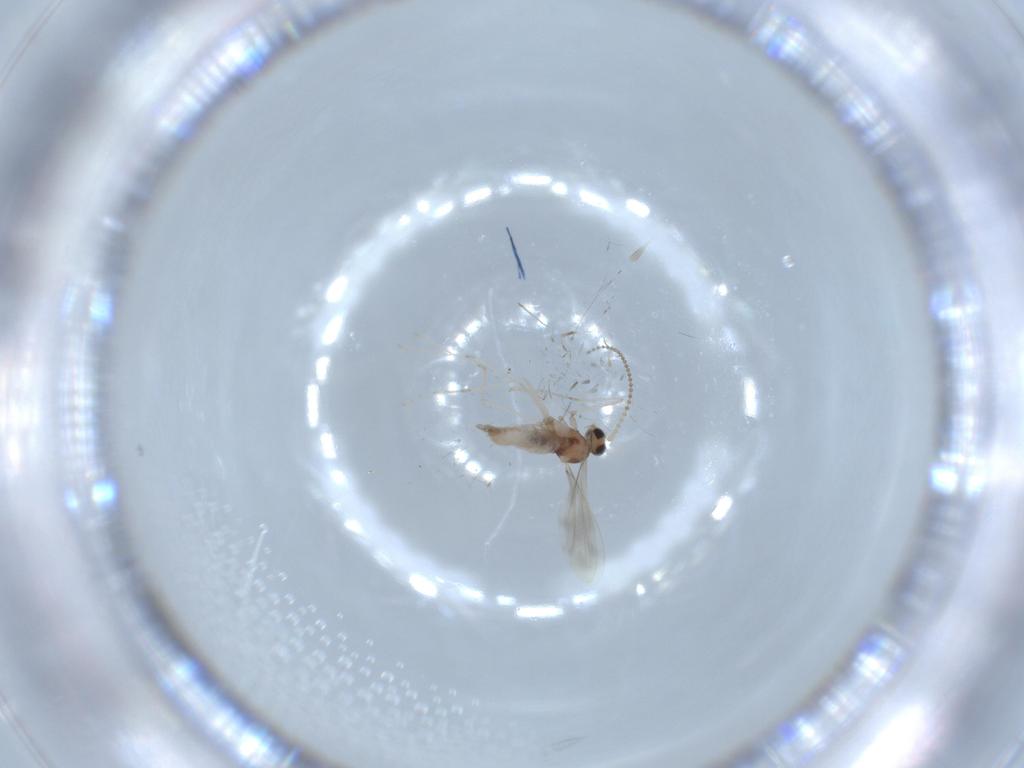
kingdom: Animalia
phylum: Arthropoda
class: Insecta
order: Diptera
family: Cecidomyiidae
